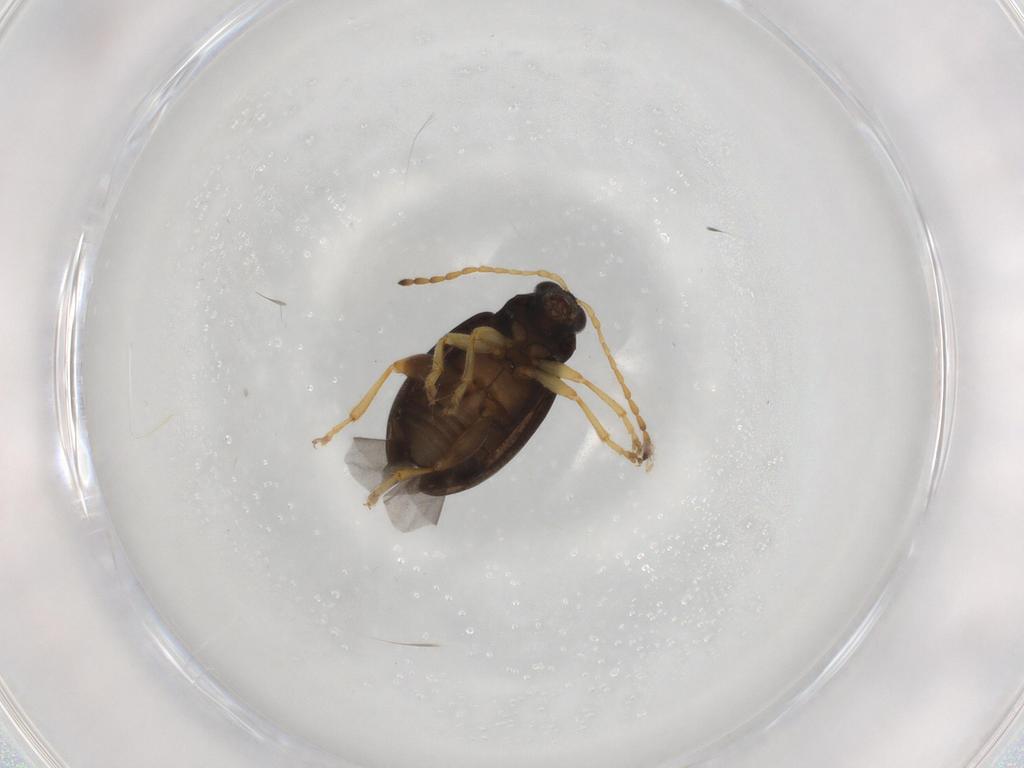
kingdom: Animalia
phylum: Arthropoda
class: Insecta
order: Coleoptera
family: Chrysomelidae
